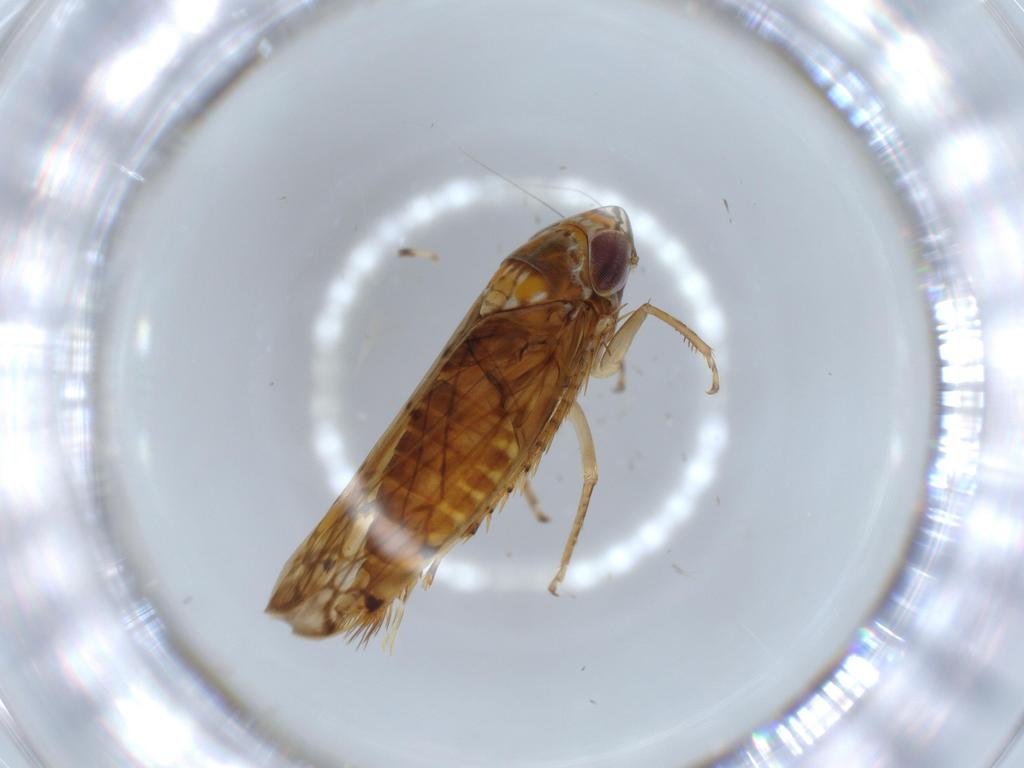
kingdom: Animalia
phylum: Arthropoda
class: Insecta
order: Hemiptera
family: Cicadellidae
